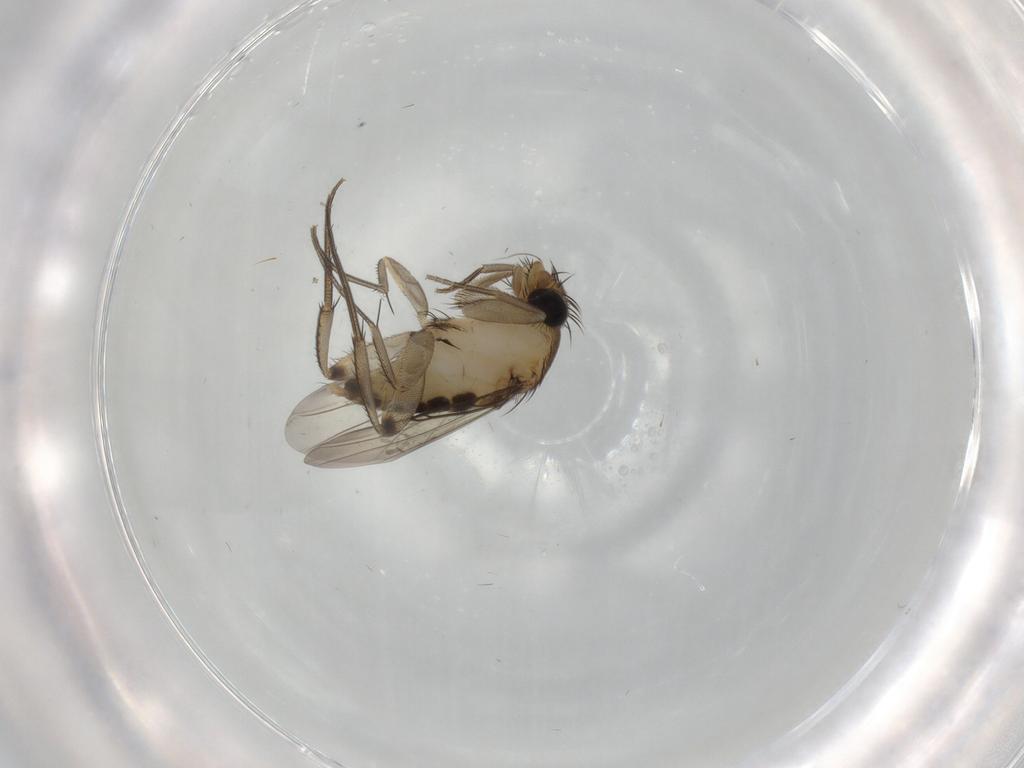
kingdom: Animalia
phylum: Arthropoda
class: Insecta
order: Diptera
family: Phoridae
